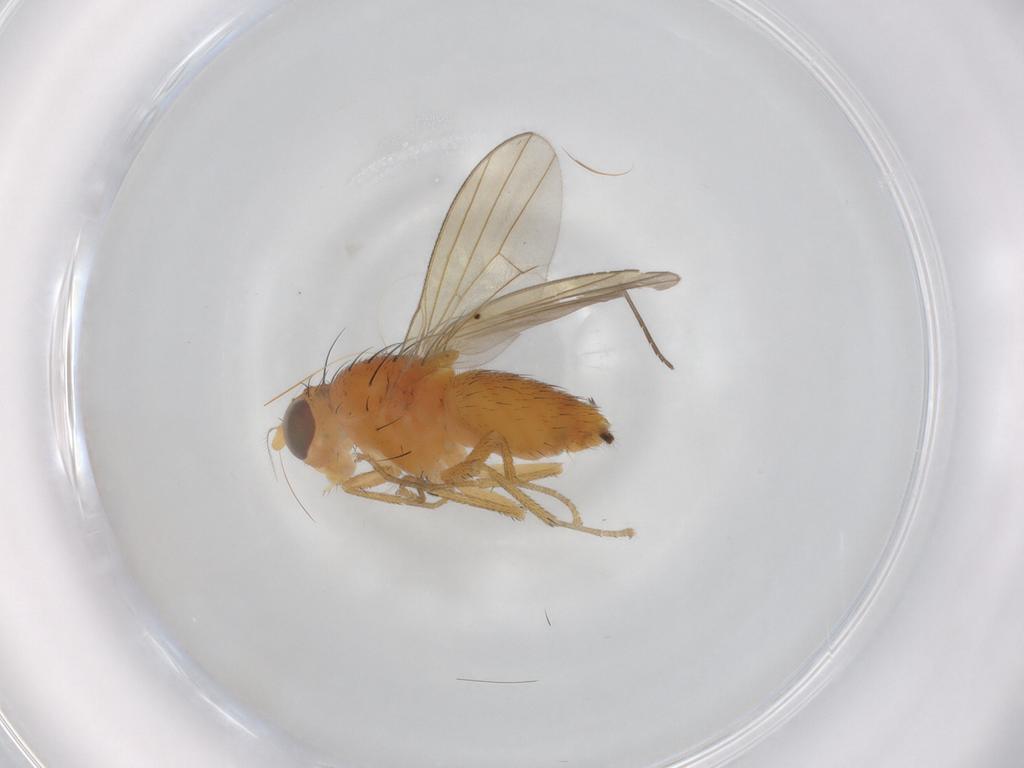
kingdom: Animalia
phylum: Arthropoda
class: Insecta
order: Diptera
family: Sciaridae
